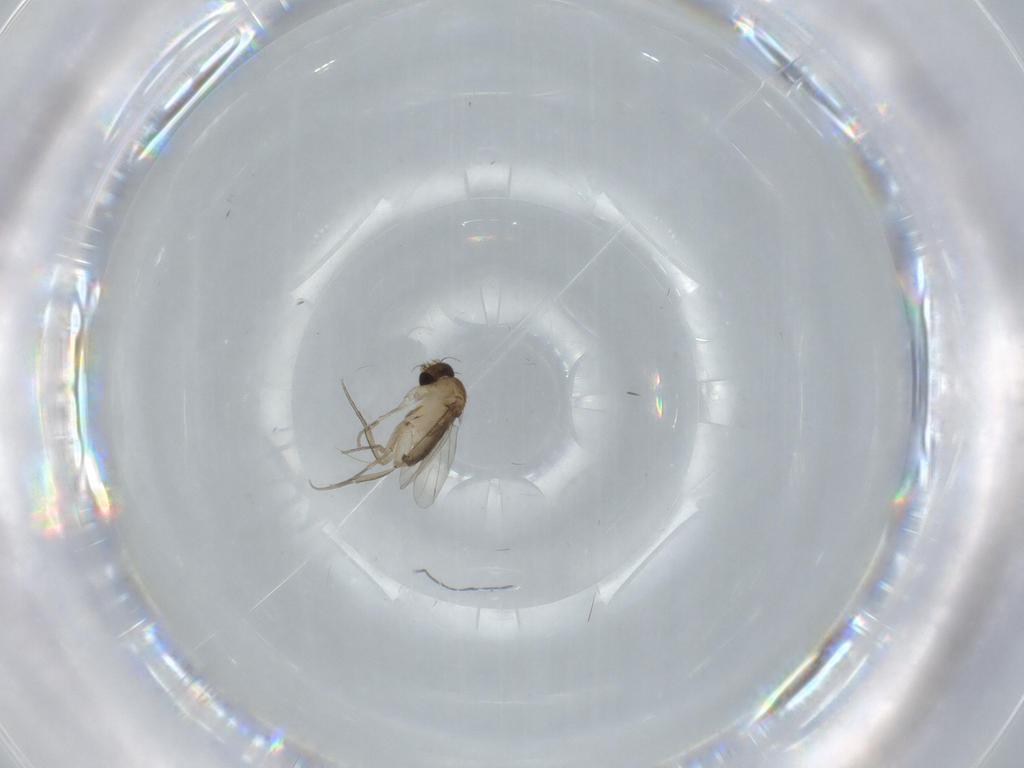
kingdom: Animalia
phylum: Arthropoda
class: Insecta
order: Diptera
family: Phoridae
